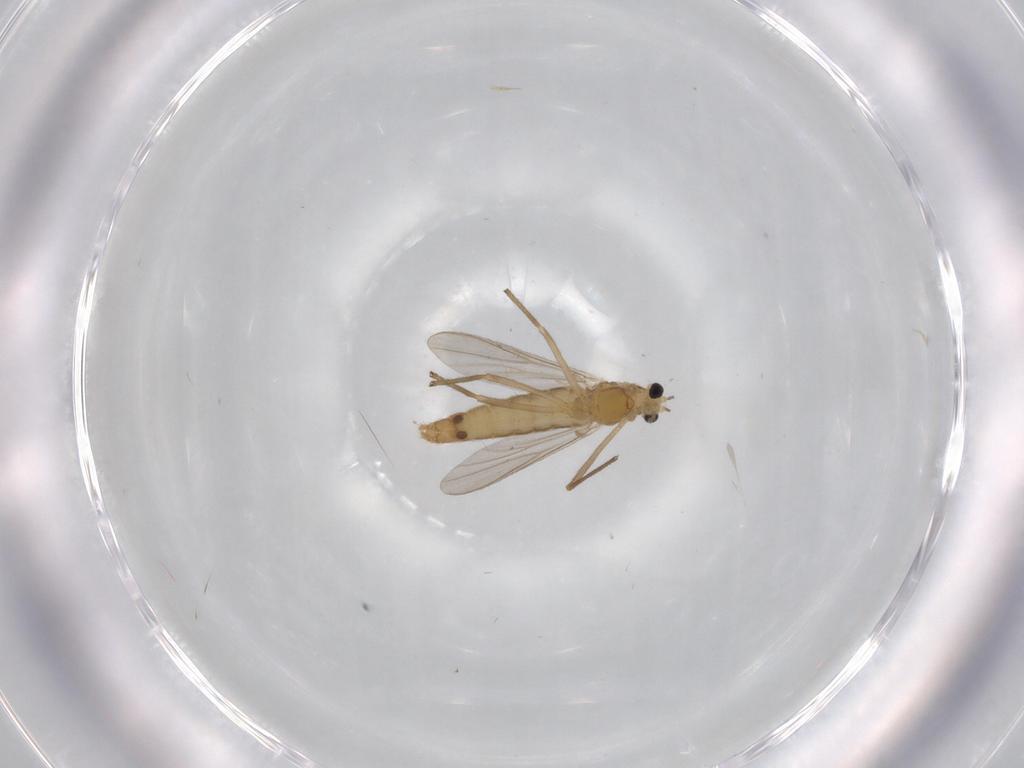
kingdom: Animalia
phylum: Arthropoda
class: Insecta
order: Diptera
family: Chironomidae
